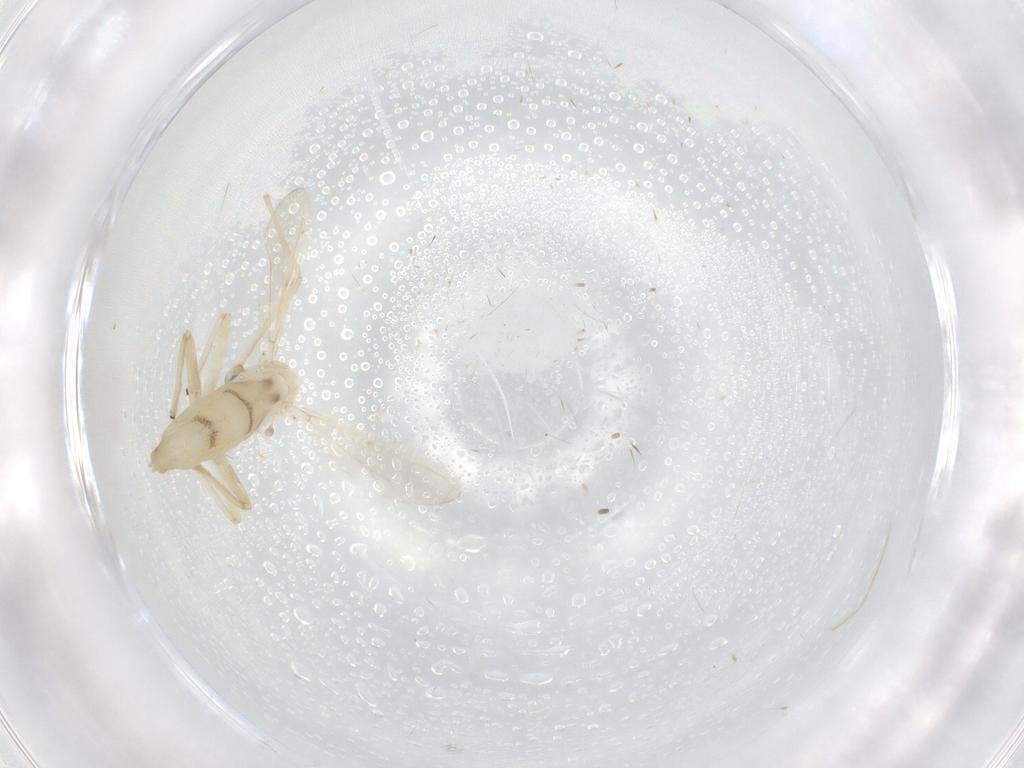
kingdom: Animalia
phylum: Arthropoda
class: Insecta
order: Diptera
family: Chironomidae
